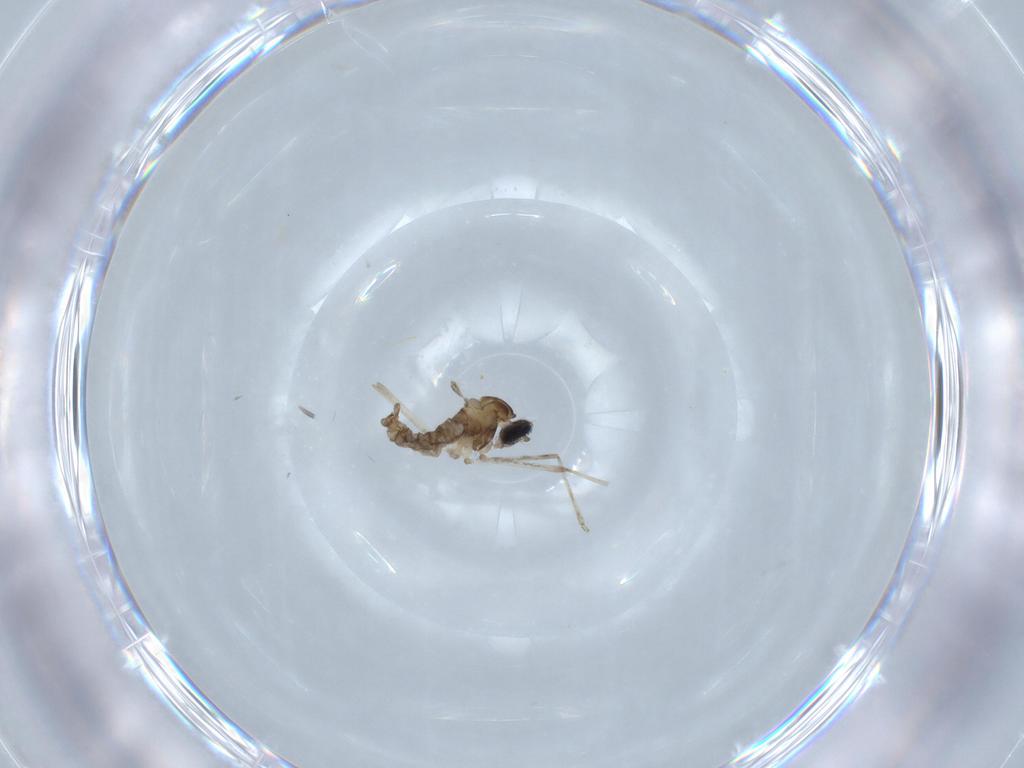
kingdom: Animalia
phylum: Arthropoda
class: Insecta
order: Diptera
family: Cecidomyiidae
